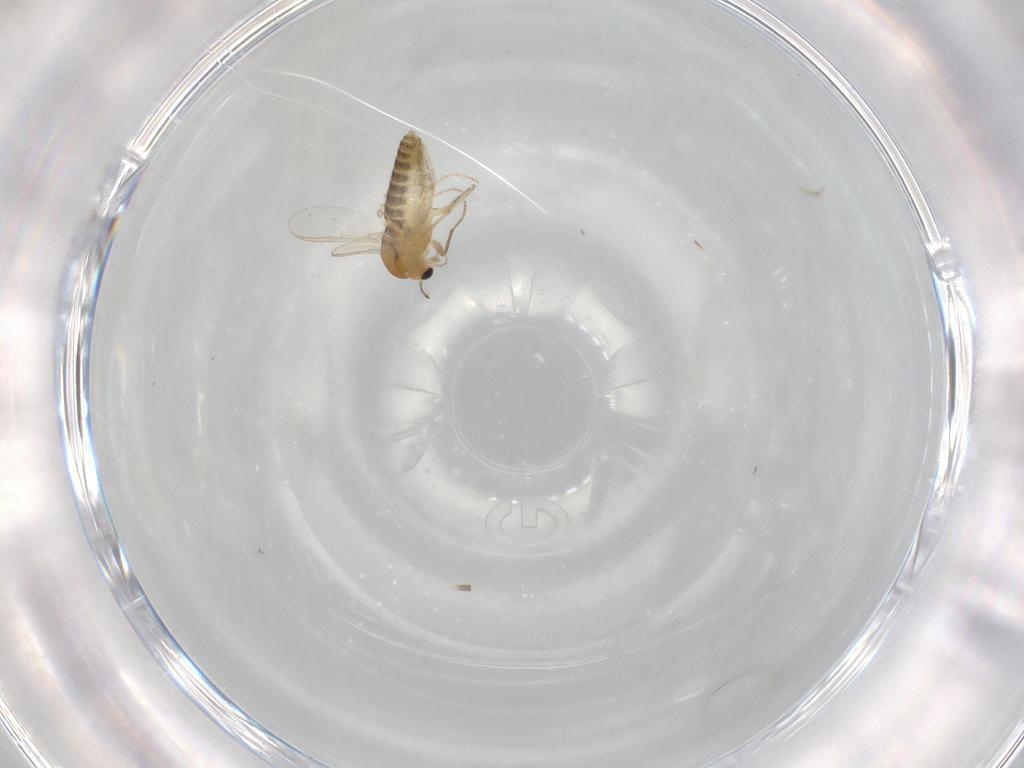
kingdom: Animalia
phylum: Arthropoda
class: Insecta
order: Diptera
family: Chironomidae
